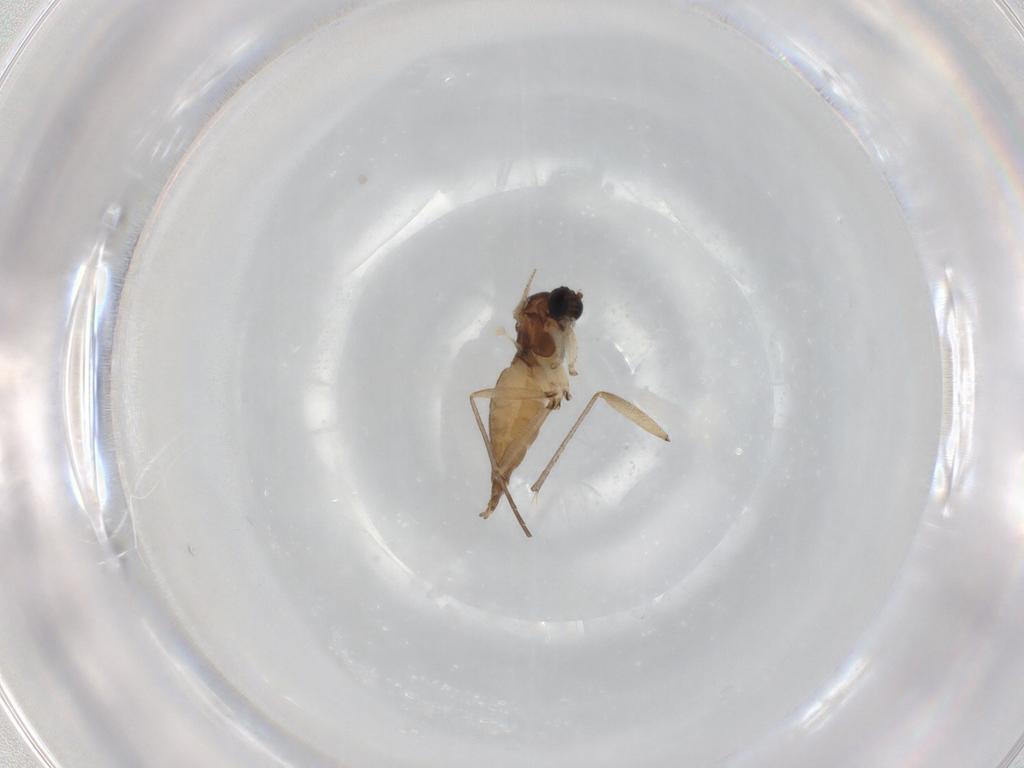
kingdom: Animalia
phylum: Arthropoda
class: Insecta
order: Diptera
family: Sciaridae
